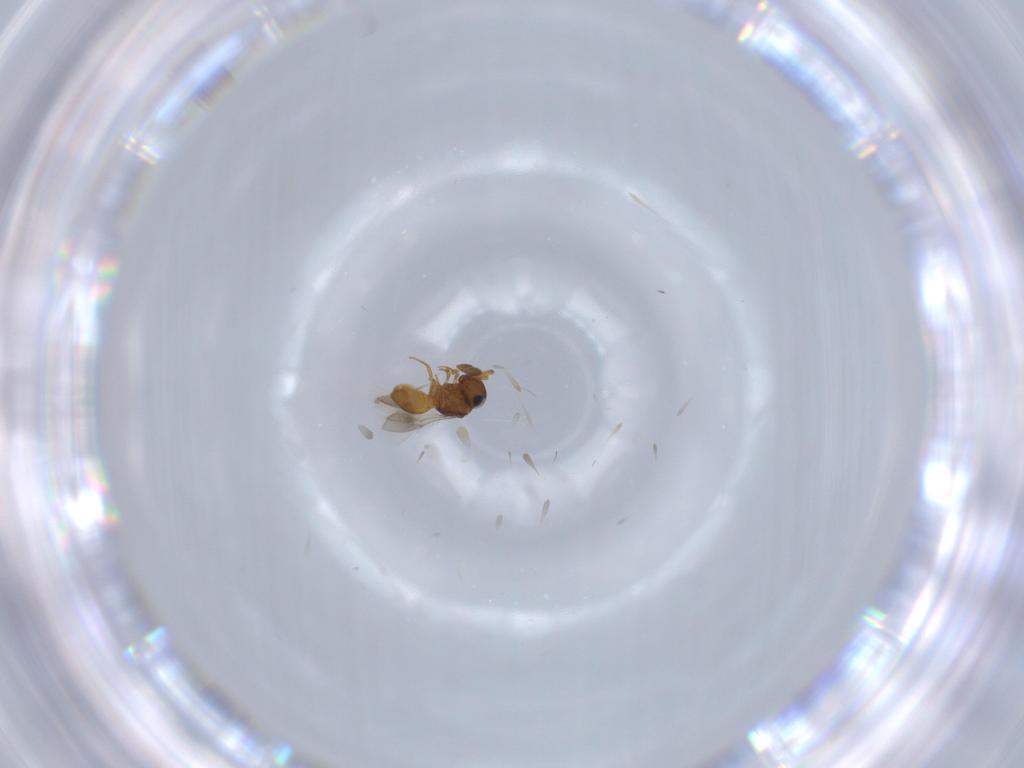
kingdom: Animalia
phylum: Arthropoda
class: Insecta
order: Hymenoptera
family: Scelionidae
